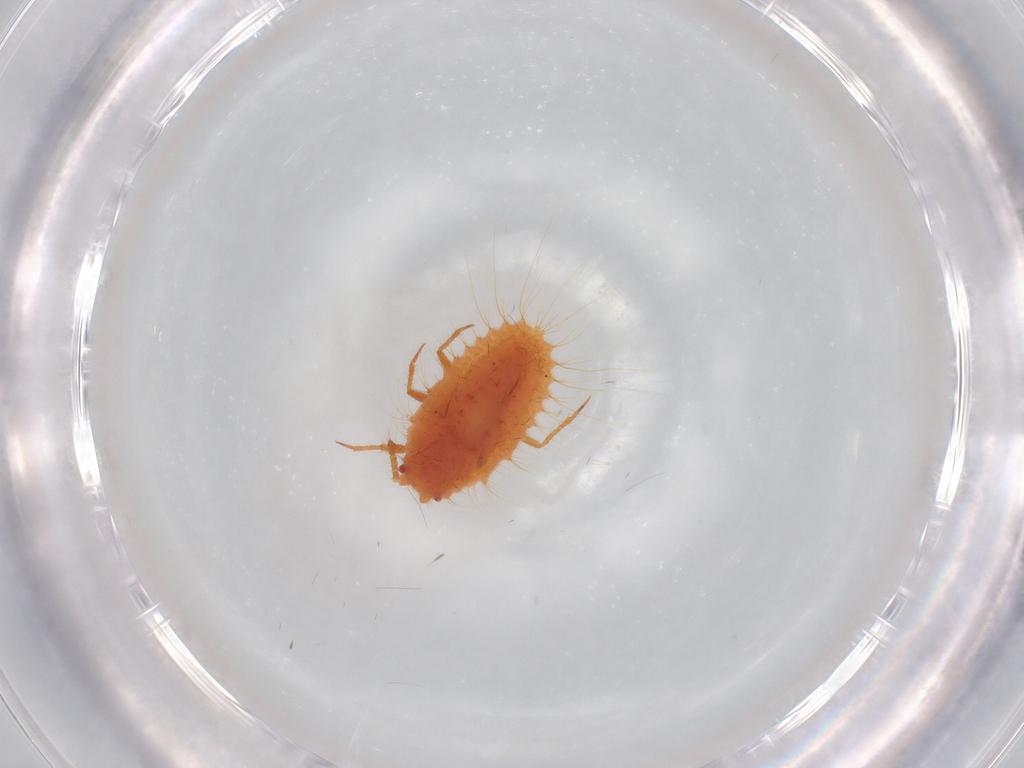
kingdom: Animalia
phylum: Arthropoda
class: Insecta
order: Hemiptera
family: Coccoidea_incertae_sedis
